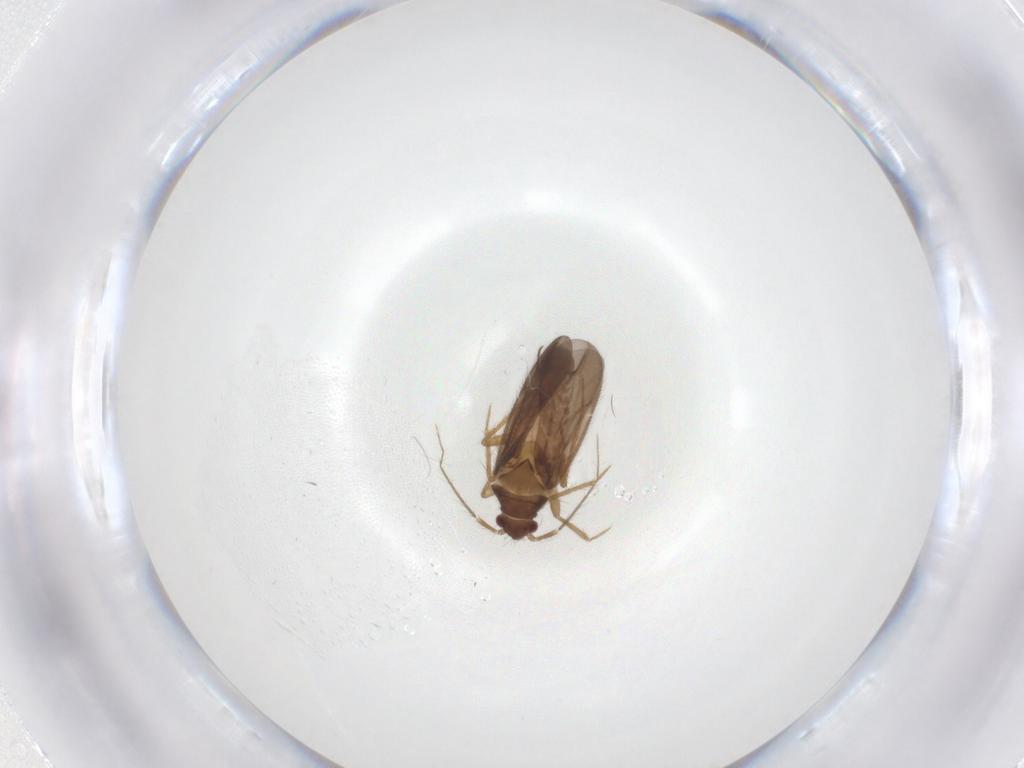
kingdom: Animalia
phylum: Arthropoda
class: Insecta
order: Hemiptera
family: Ceratocombidae
